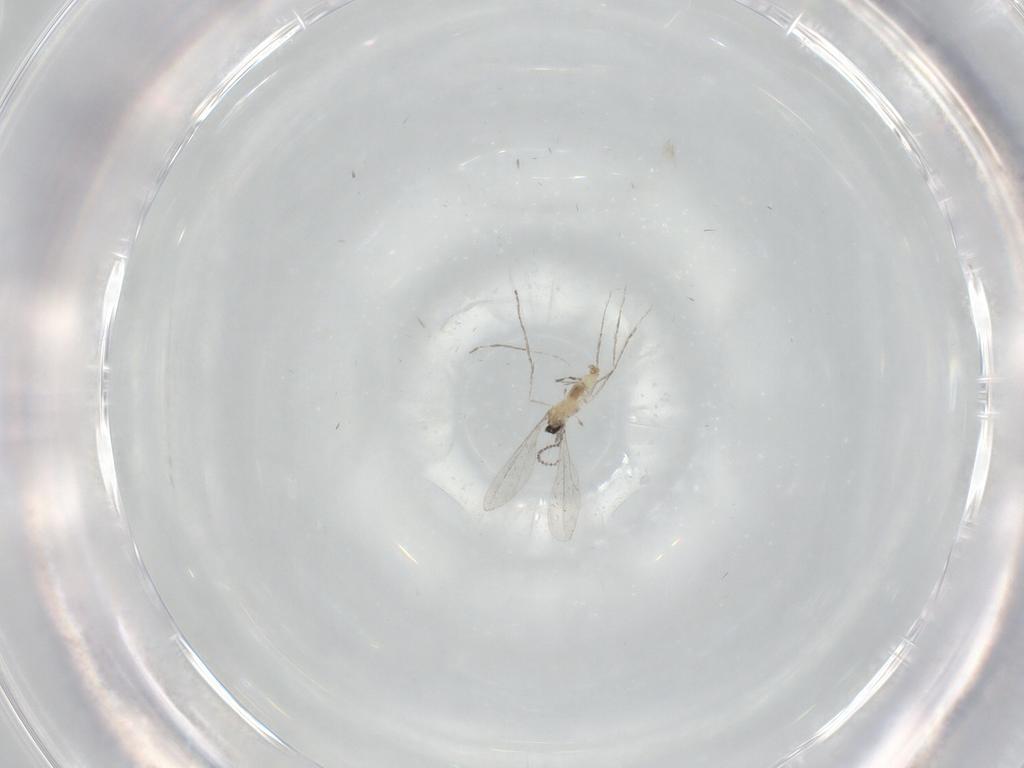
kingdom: Animalia
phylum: Arthropoda
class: Insecta
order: Diptera
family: Cecidomyiidae
